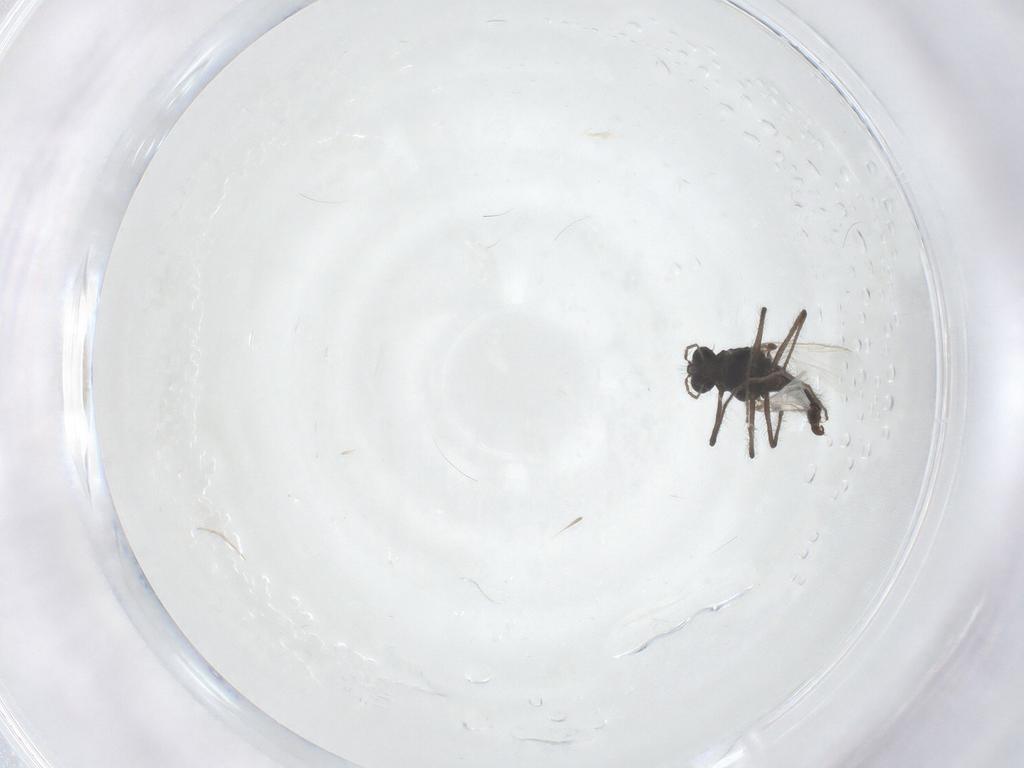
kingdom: Animalia
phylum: Arthropoda
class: Insecta
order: Diptera
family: Chironomidae
